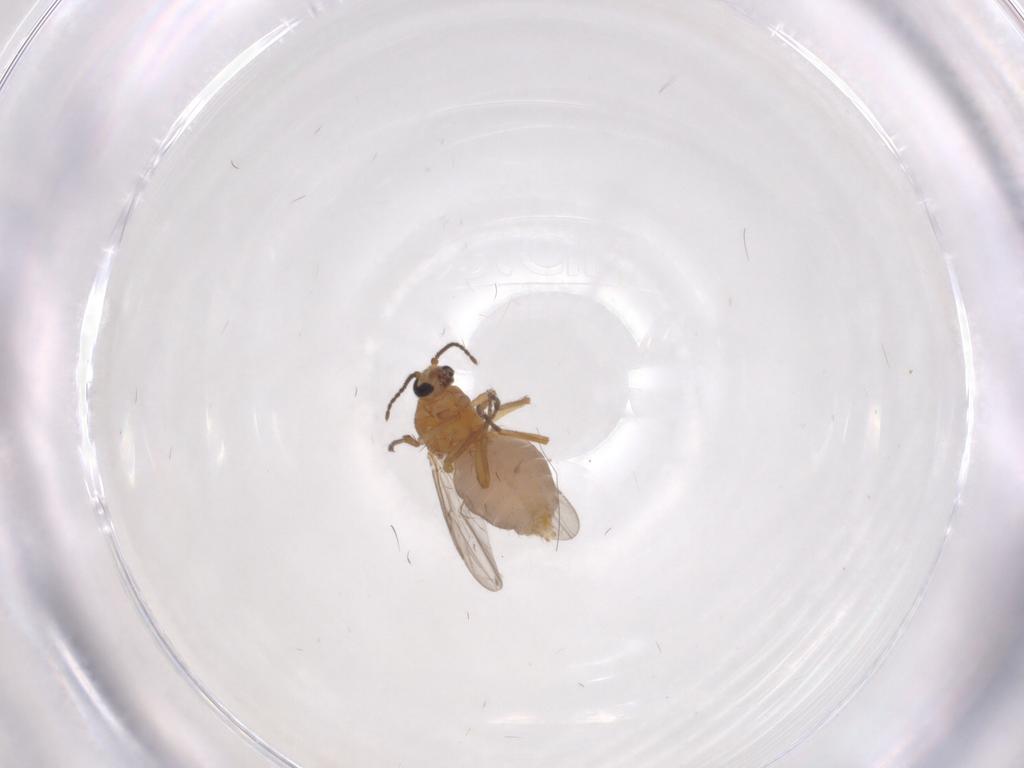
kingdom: Animalia
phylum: Arthropoda
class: Insecta
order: Diptera
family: Ceratopogonidae
